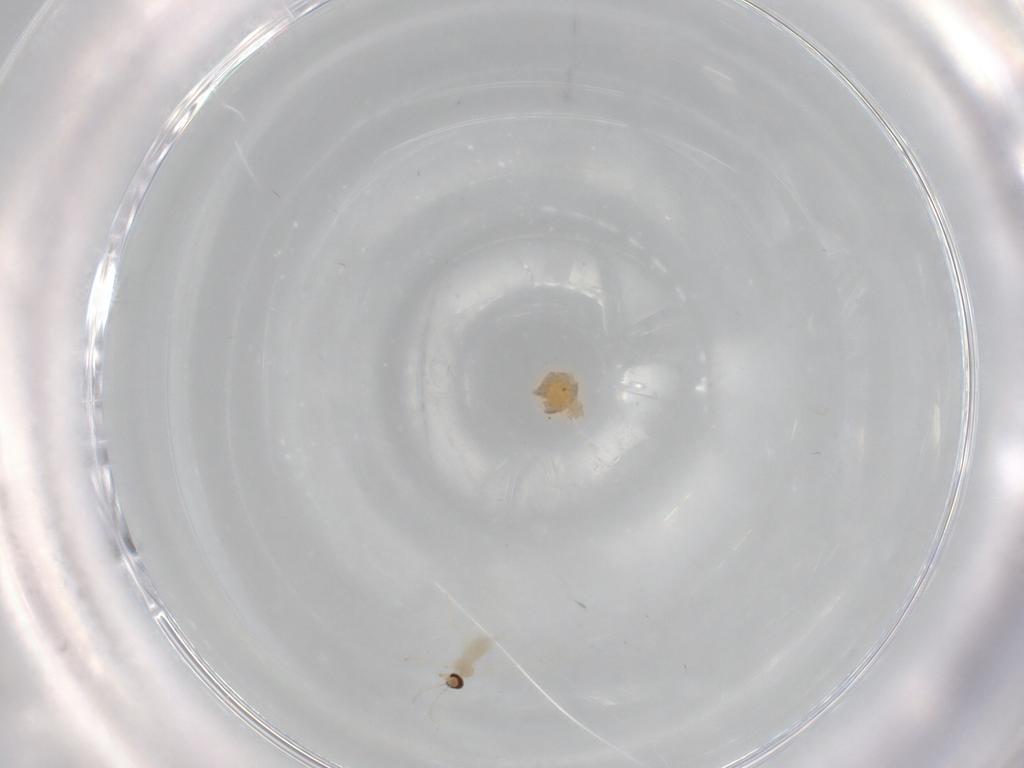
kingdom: Animalia
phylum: Arthropoda
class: Insecta
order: Diptera
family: Cecidomyiidae
